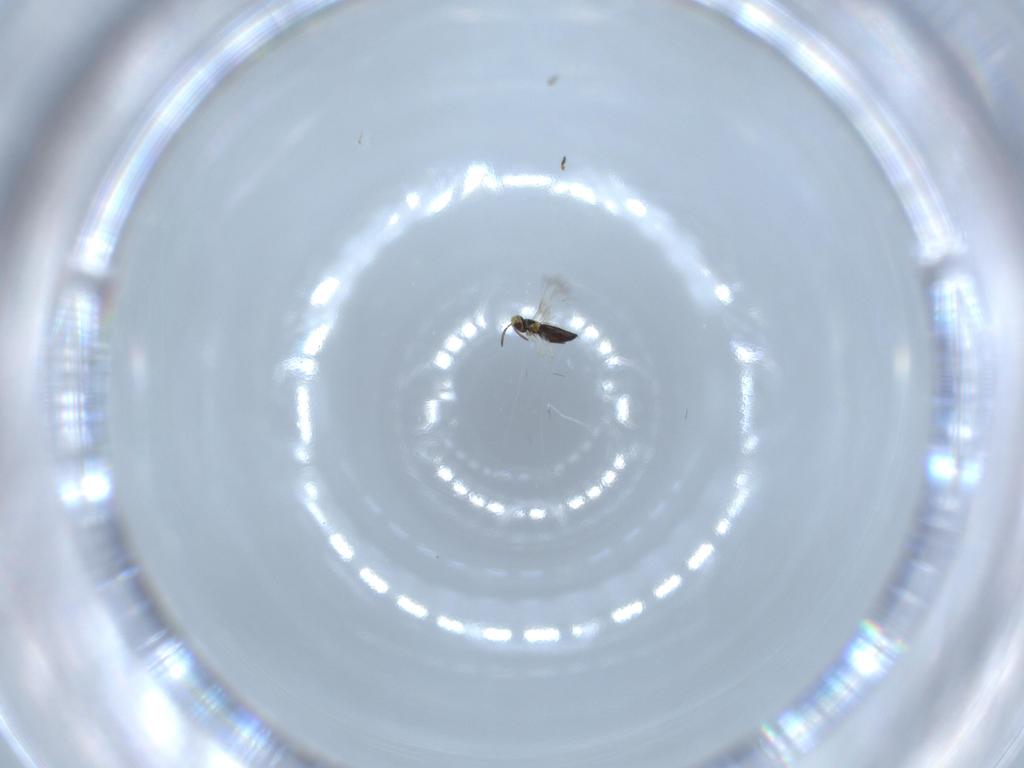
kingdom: Animalia
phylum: Arthropoda
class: Insecta
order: Hymenoptera
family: Signiphoridae
